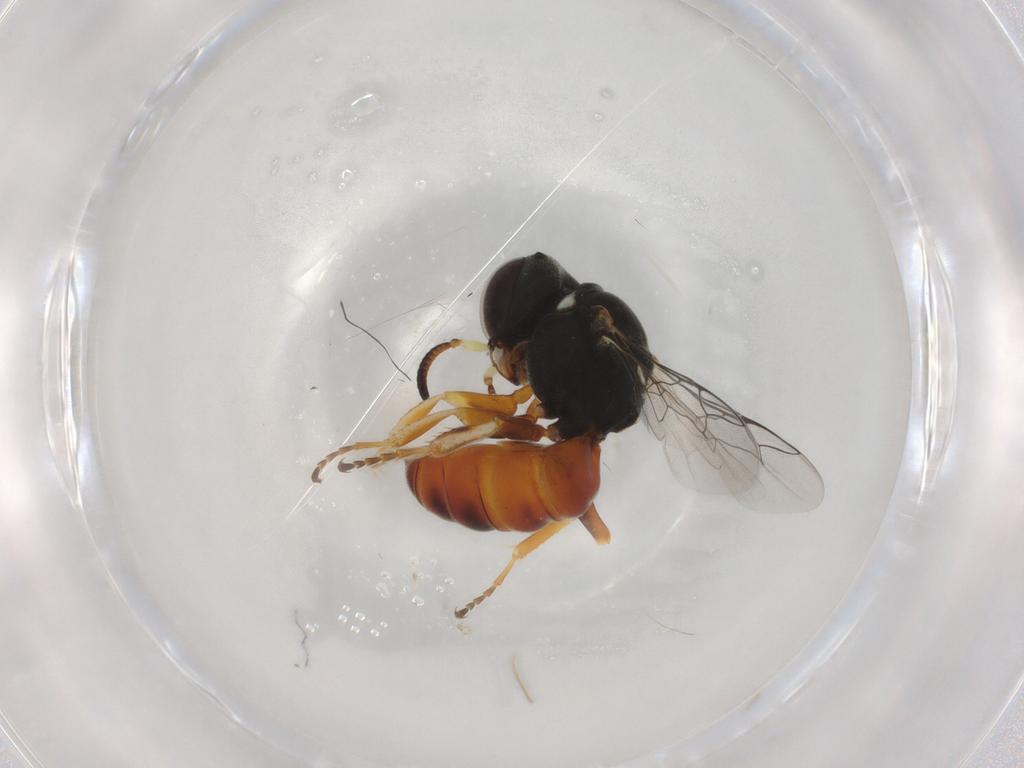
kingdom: Animalia
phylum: Arthropoda
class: Insecta
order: Hymenoptera
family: Crabronidae
